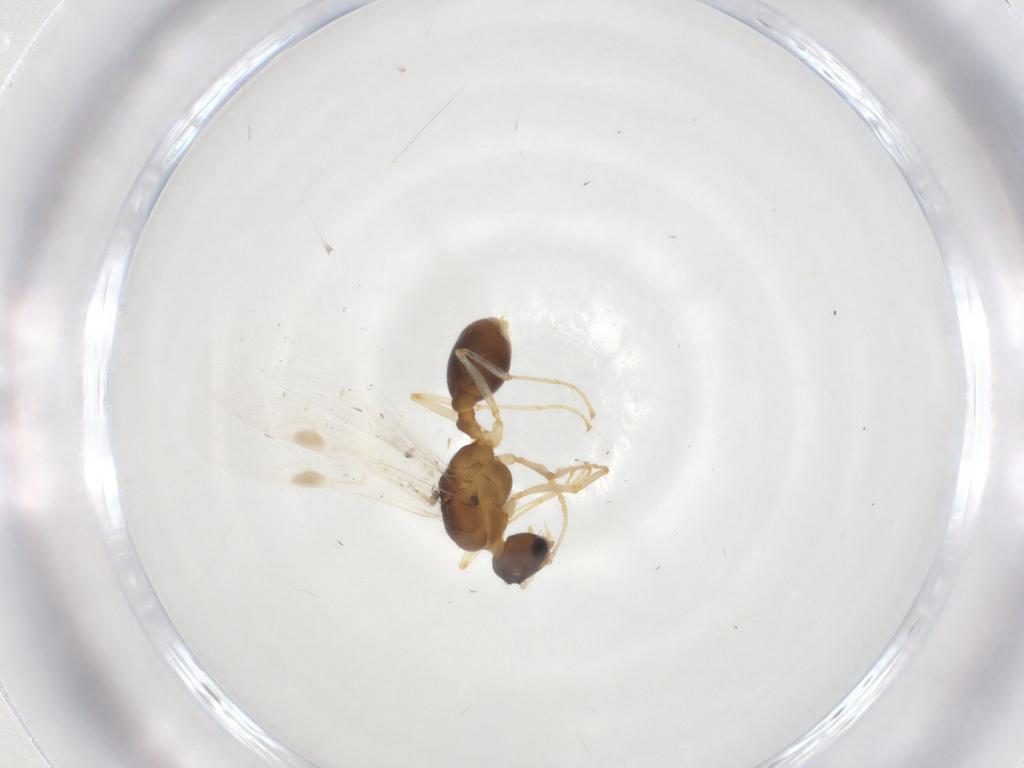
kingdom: Animalia
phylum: Arthropoda
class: Insecta
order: Hymenoptera
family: Formicidae
